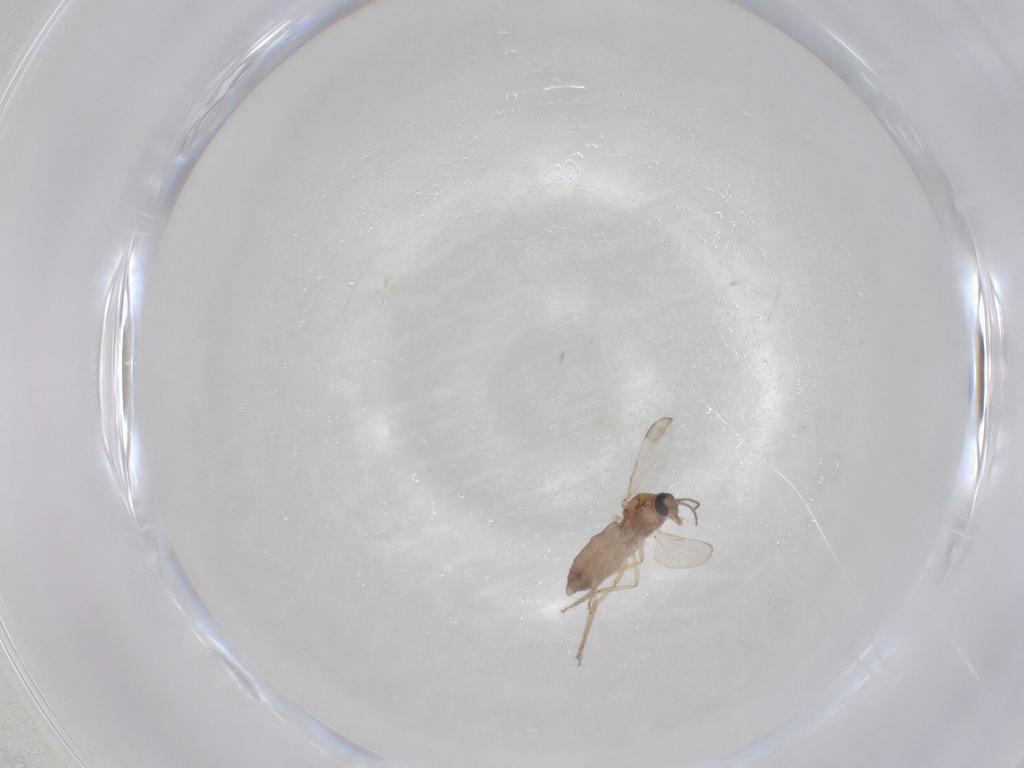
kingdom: Animalia
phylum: Arthropoda
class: Insecta
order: Diptera
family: Ceratopogonidae
